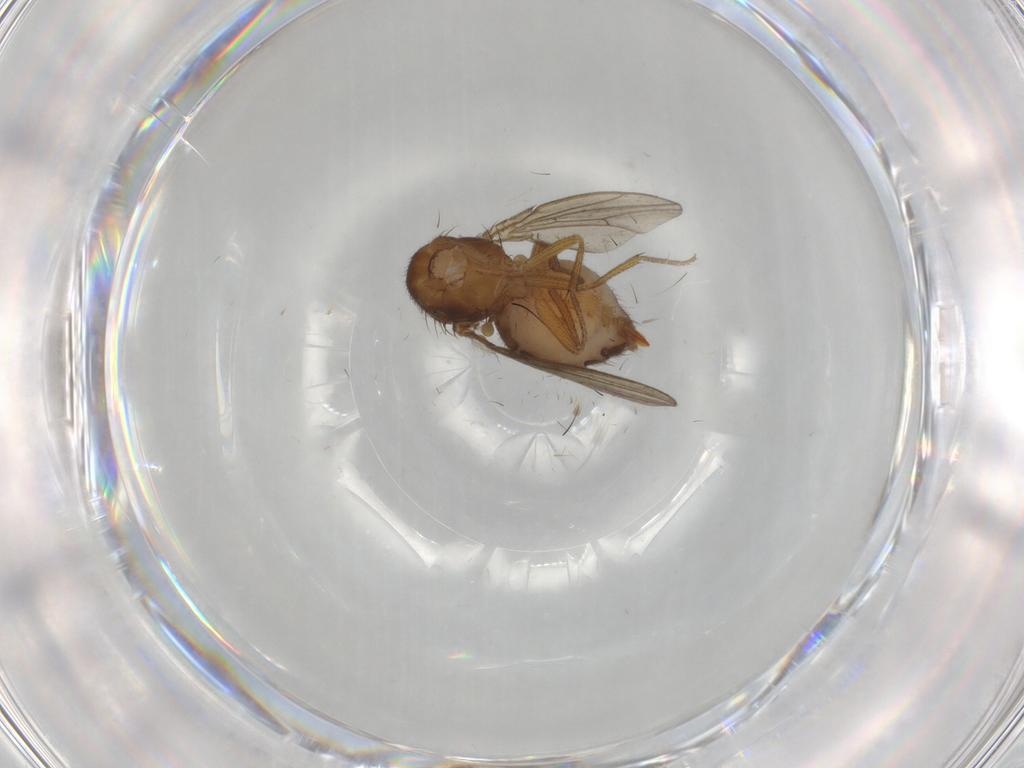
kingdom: Animalia
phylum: Arthropoda
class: Insecta
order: Diptera
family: Drosophilidae
